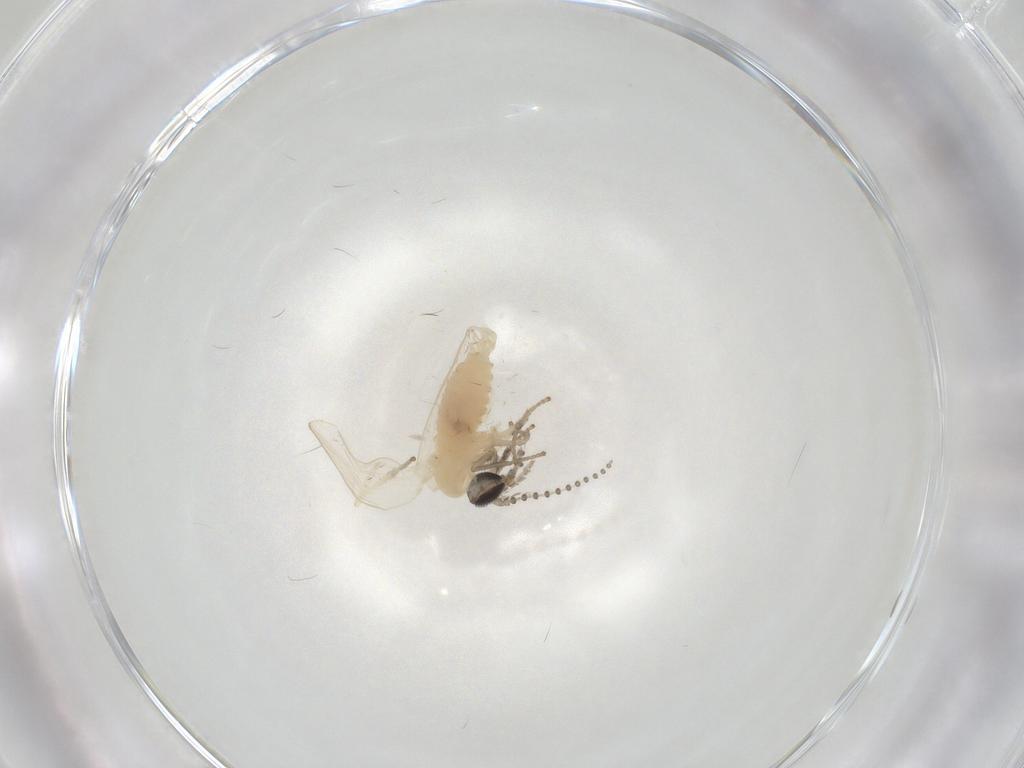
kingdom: Animalia
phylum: Arthropoda
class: Insecta
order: Diptera
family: Psychodidae
